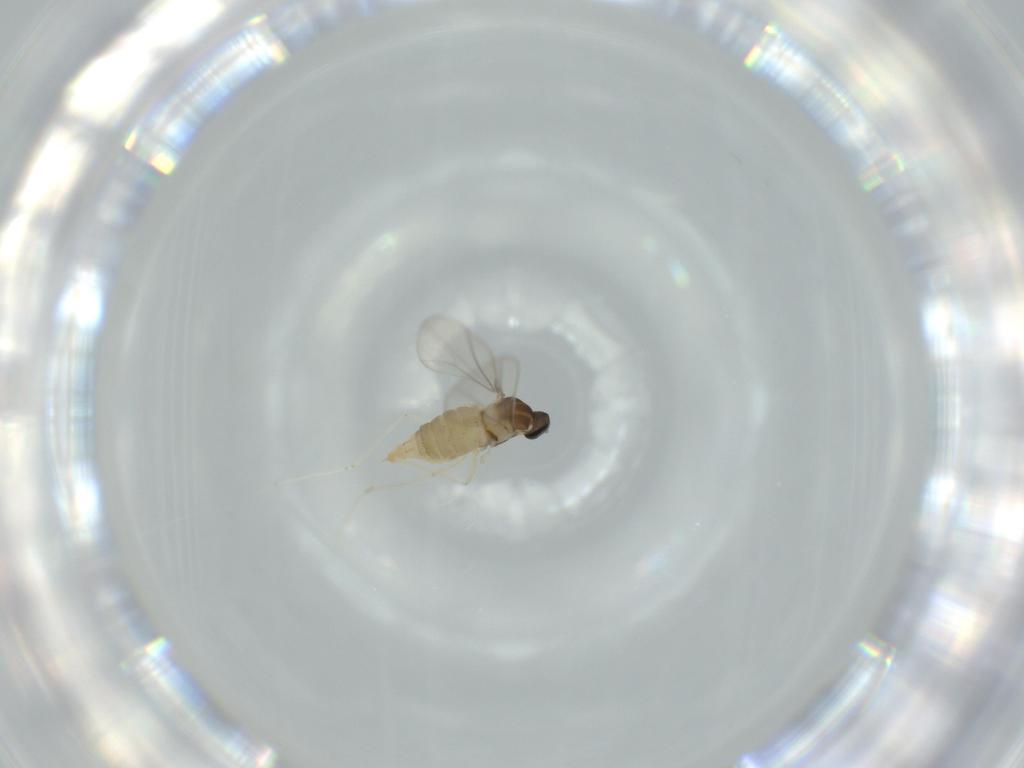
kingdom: Animalia
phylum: Arthropoda
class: Insecta
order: Diptera
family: Cecidomyiidae
